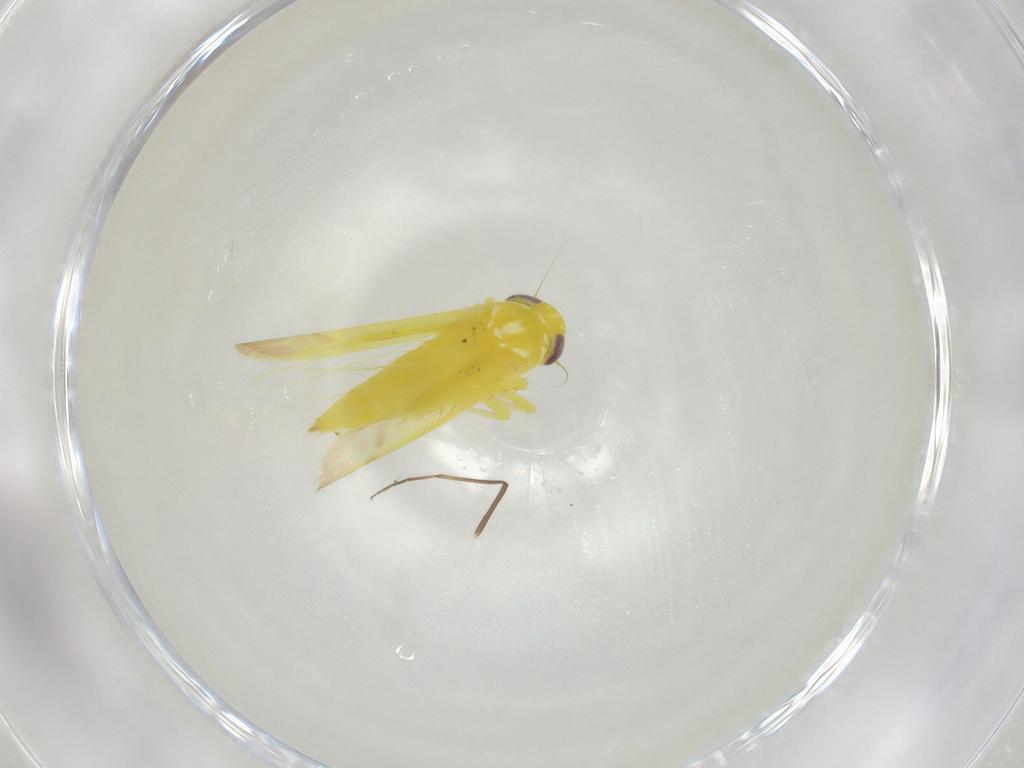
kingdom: Animalia
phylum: Arthropoda
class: Insecta
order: Hemiptera
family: Cicadellidae
